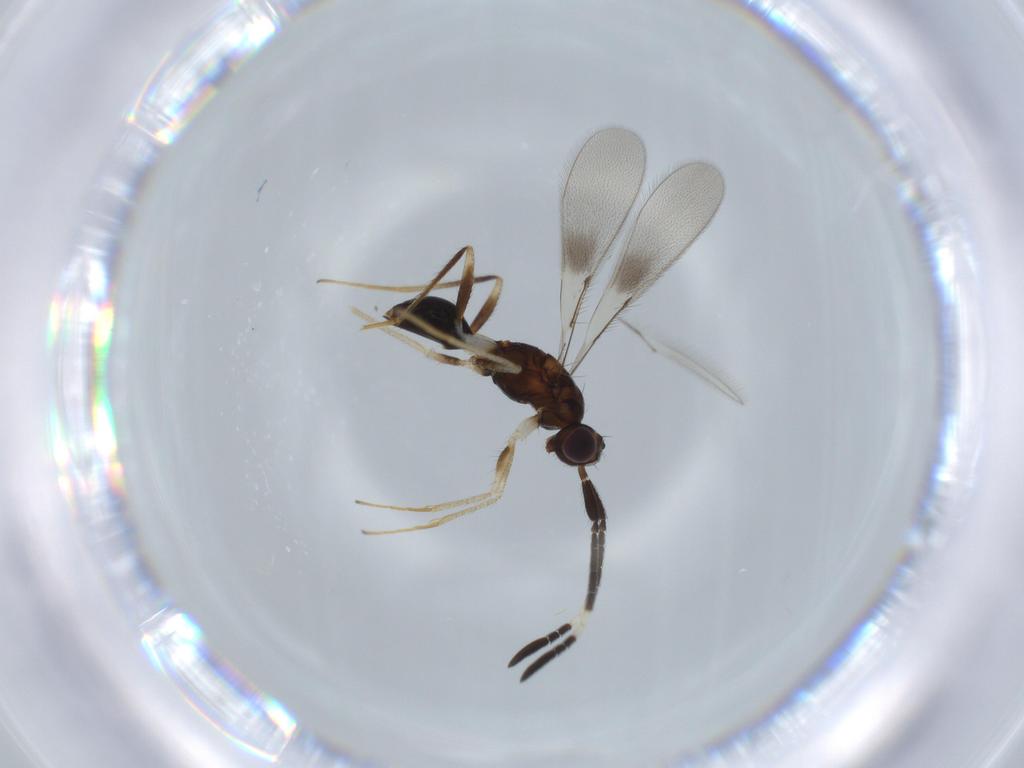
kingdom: Animalia
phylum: Arthropoda
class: Insecta
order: Hymenoptera
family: Mymaridae
